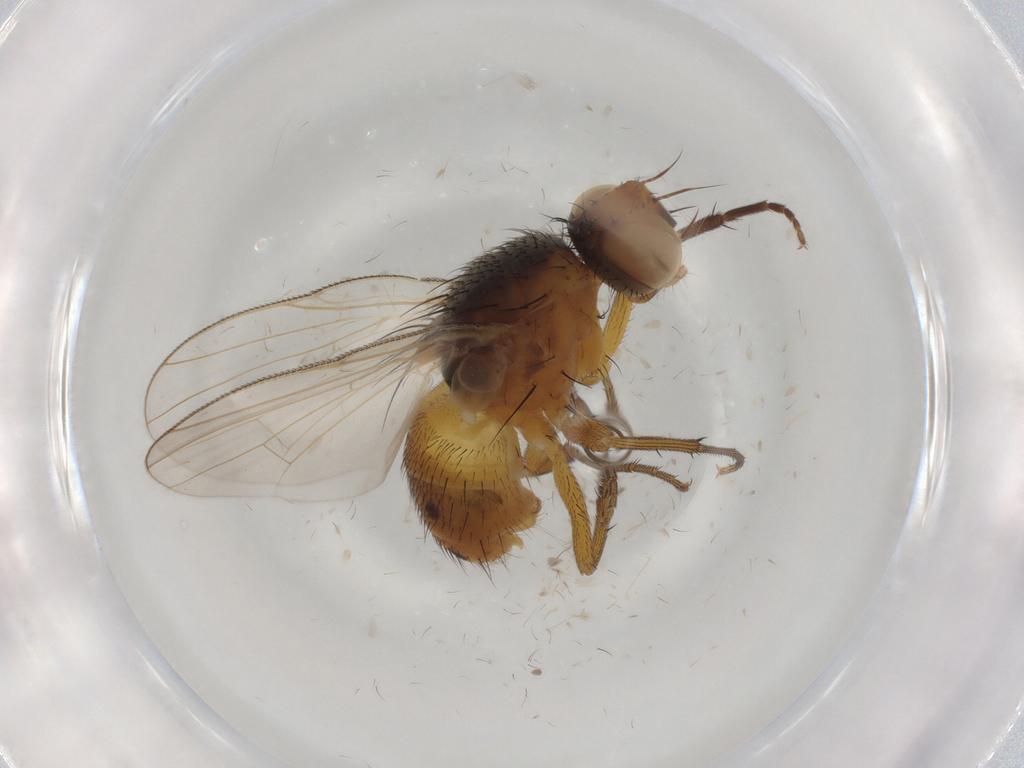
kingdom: Animalia
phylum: Arthropoda
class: Insecta
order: Diptera
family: Muscidae
